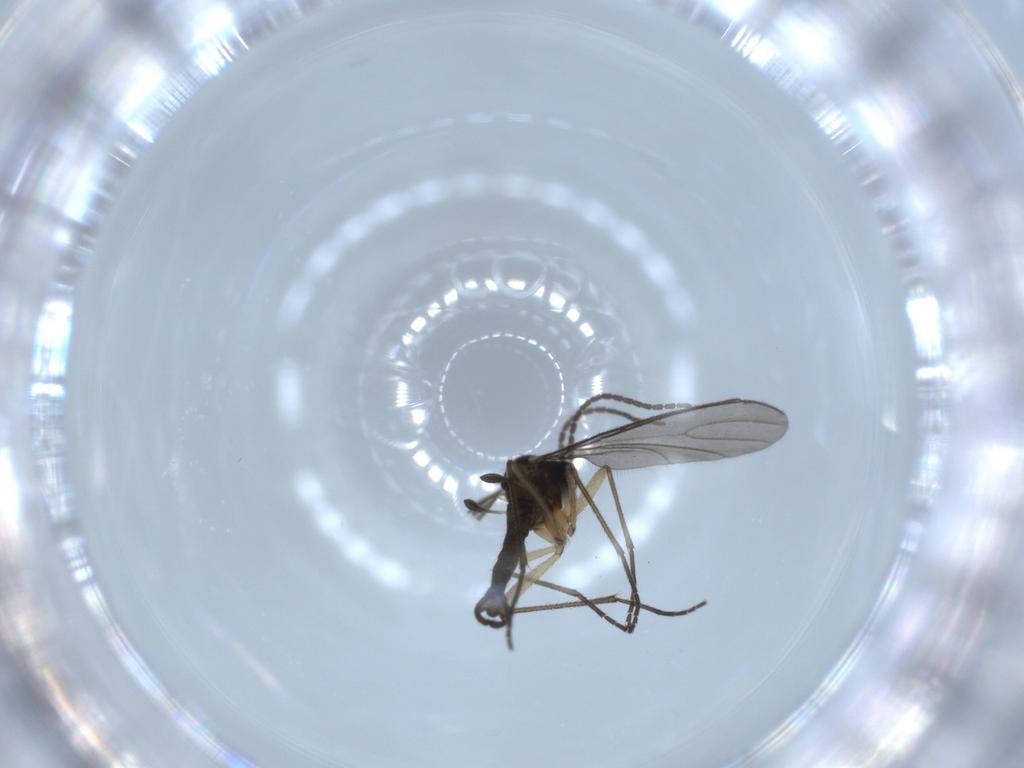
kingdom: Animalia
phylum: Arthropoda
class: Insecta
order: Diptera
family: Sciaridae
